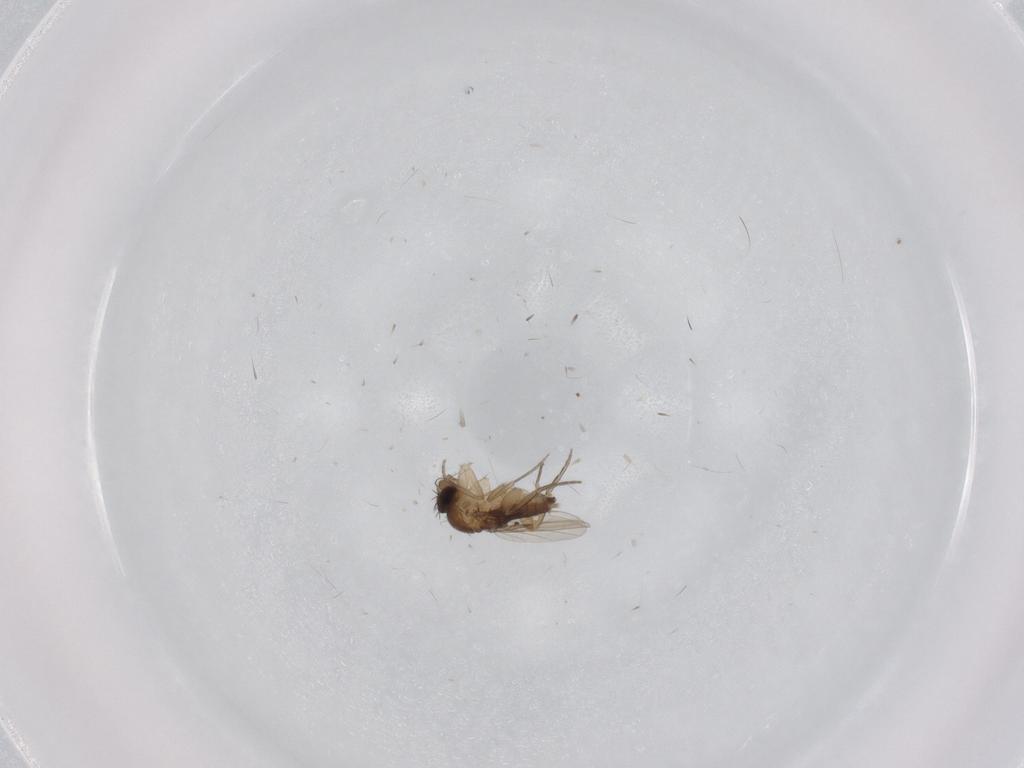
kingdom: Animalia
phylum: Arthropoda
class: Insecta
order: Diptera
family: Phoridae
